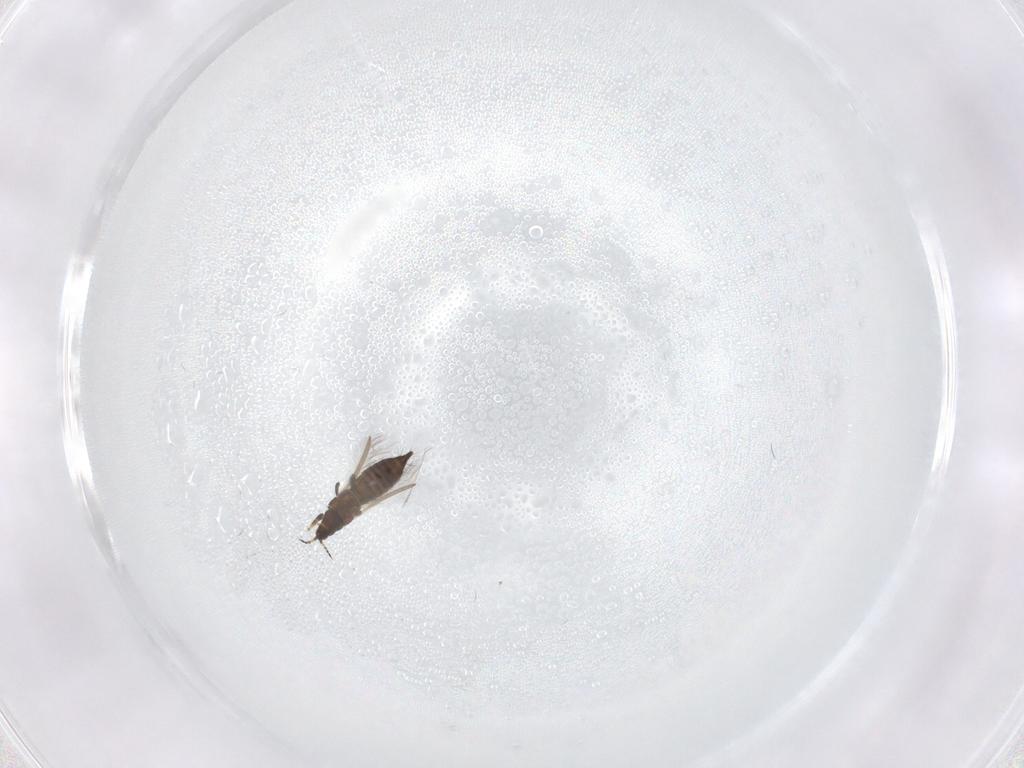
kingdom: Animalia
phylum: Arthropoda
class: Insecta
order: Thysanoptera
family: Thripidae
